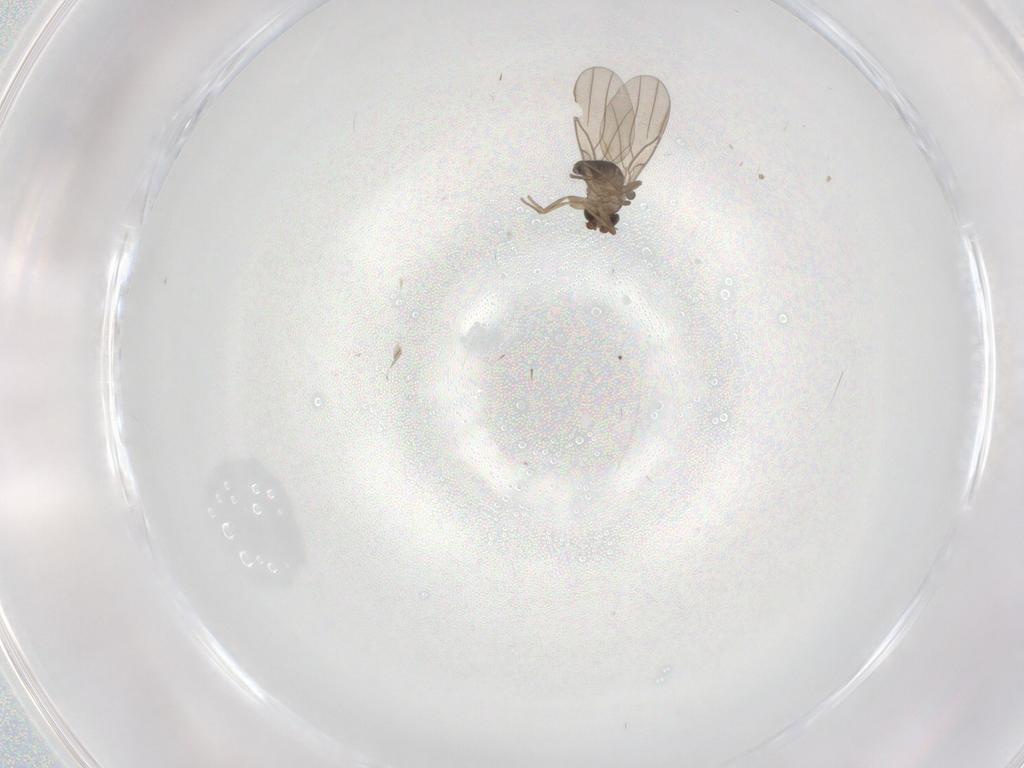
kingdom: Animalia
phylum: Arthropoda
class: Insecta
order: Diptera
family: Phoridae
